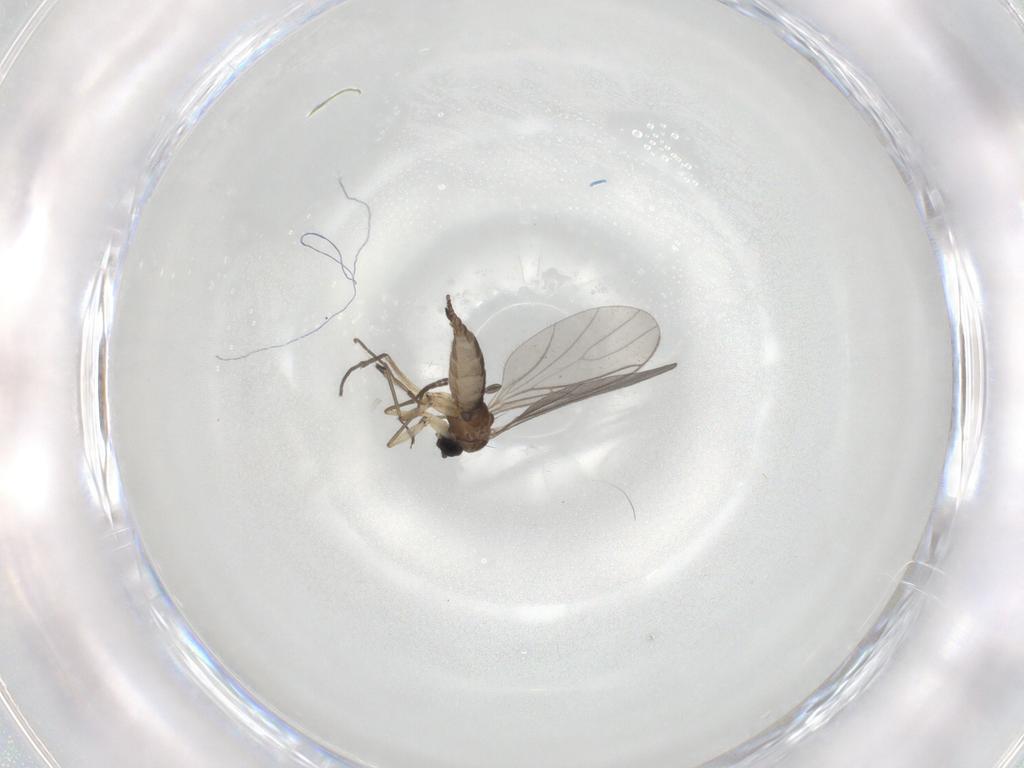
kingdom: Animalia
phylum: Arthropoda
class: Insecta
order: Diptera
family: Sciaridae
